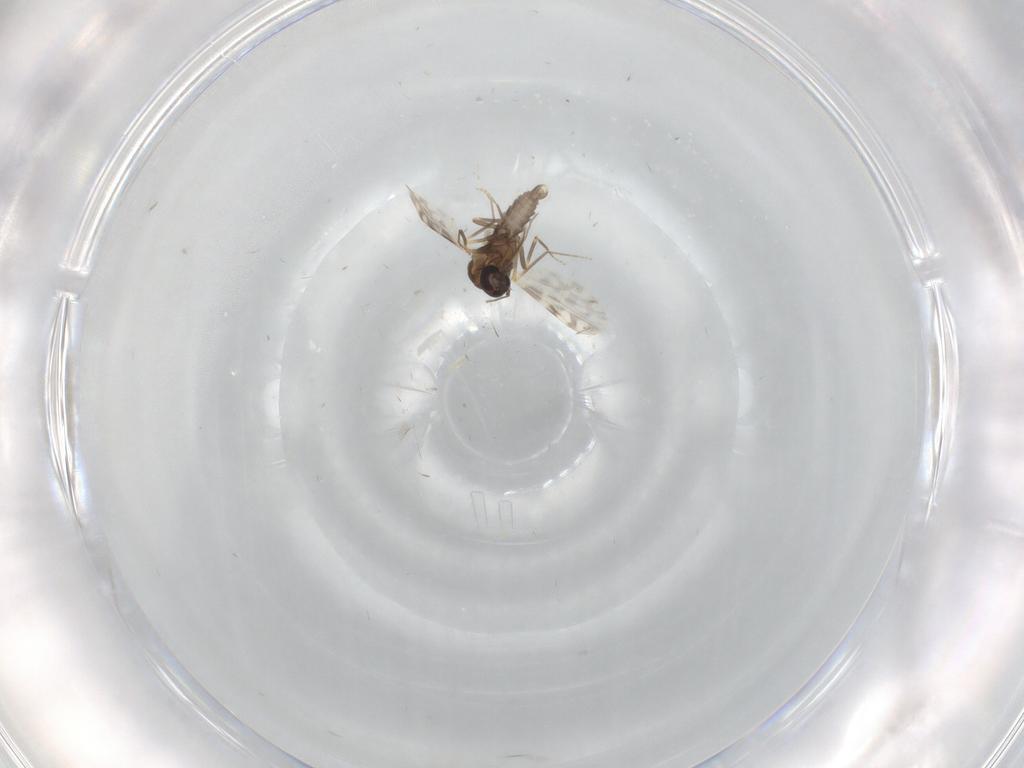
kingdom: Animalia
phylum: Arthropoda
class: Insecta
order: Diptera
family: Ceratopogonidae
